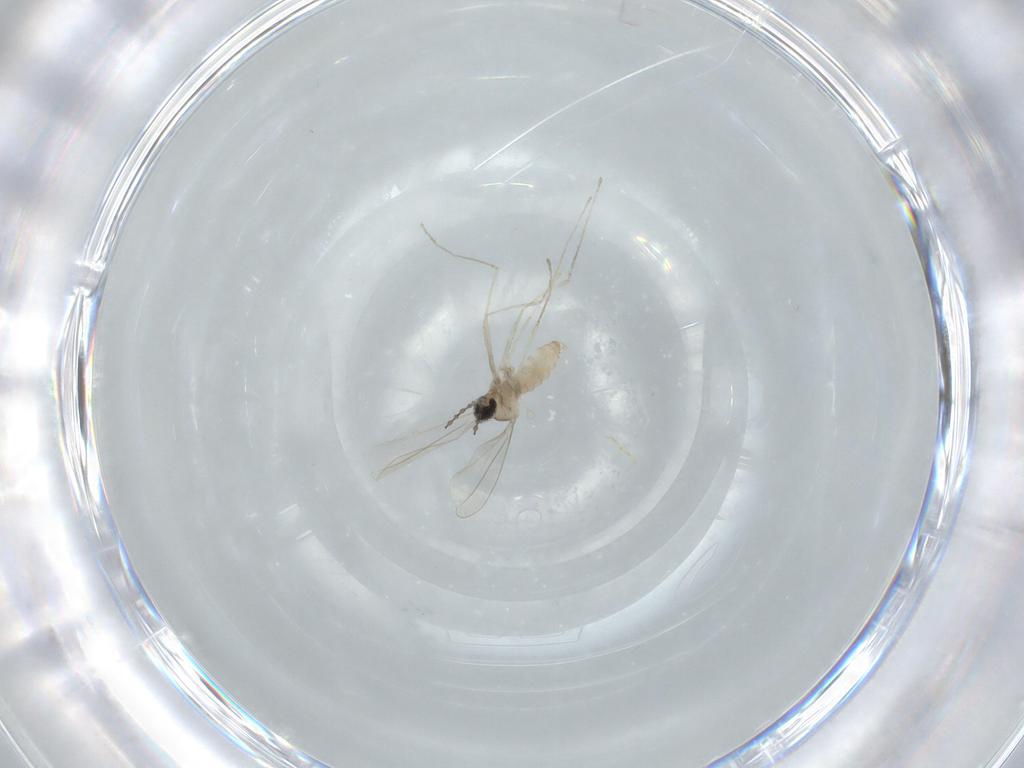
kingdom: Animalia
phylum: Arthropoda
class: Insecta
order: Diptera
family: Cecidomyiidae
